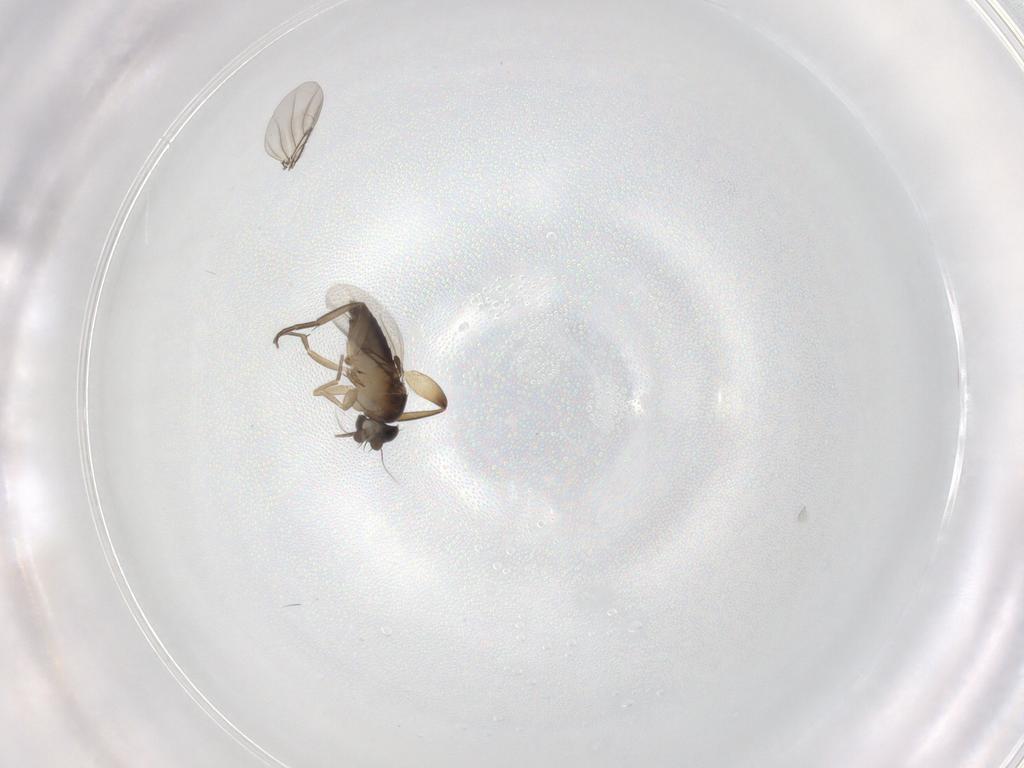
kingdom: Animalia
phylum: Arthropoda
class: Insecta
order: Diptera
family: Phoridae
